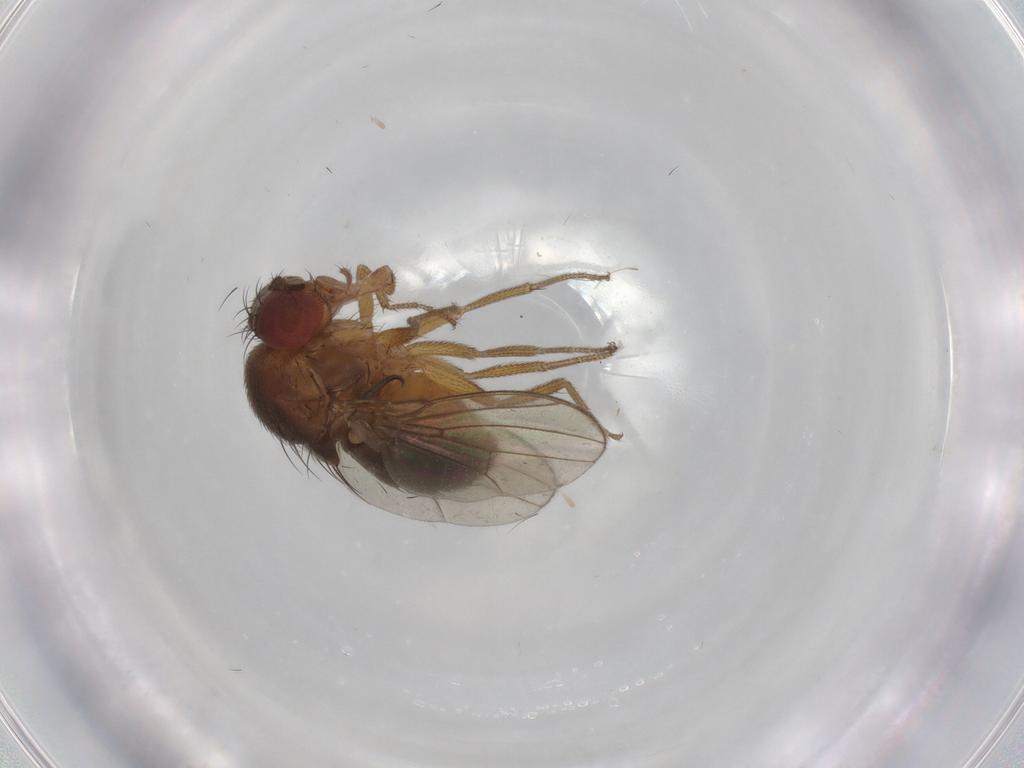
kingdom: Animalia
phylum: Arthropoda
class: Insecta
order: Diptera
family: Drosophilidae
